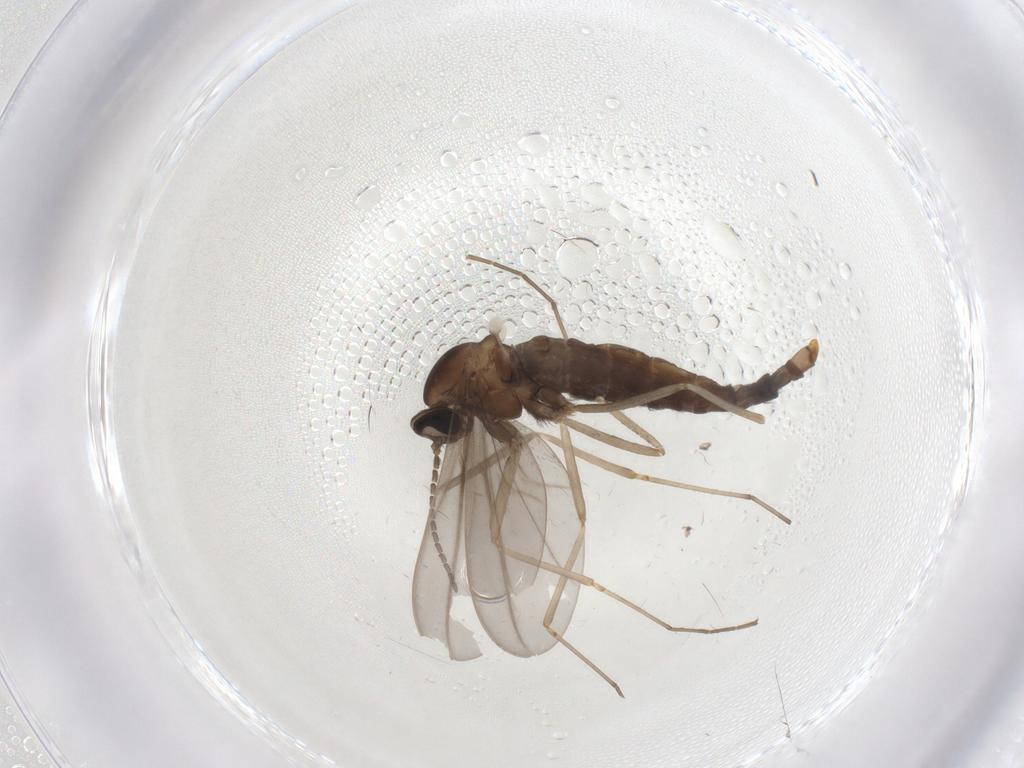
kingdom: Animalia
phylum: Arthropoda
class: Insecta
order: Diptera
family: Cecidomyiidae
